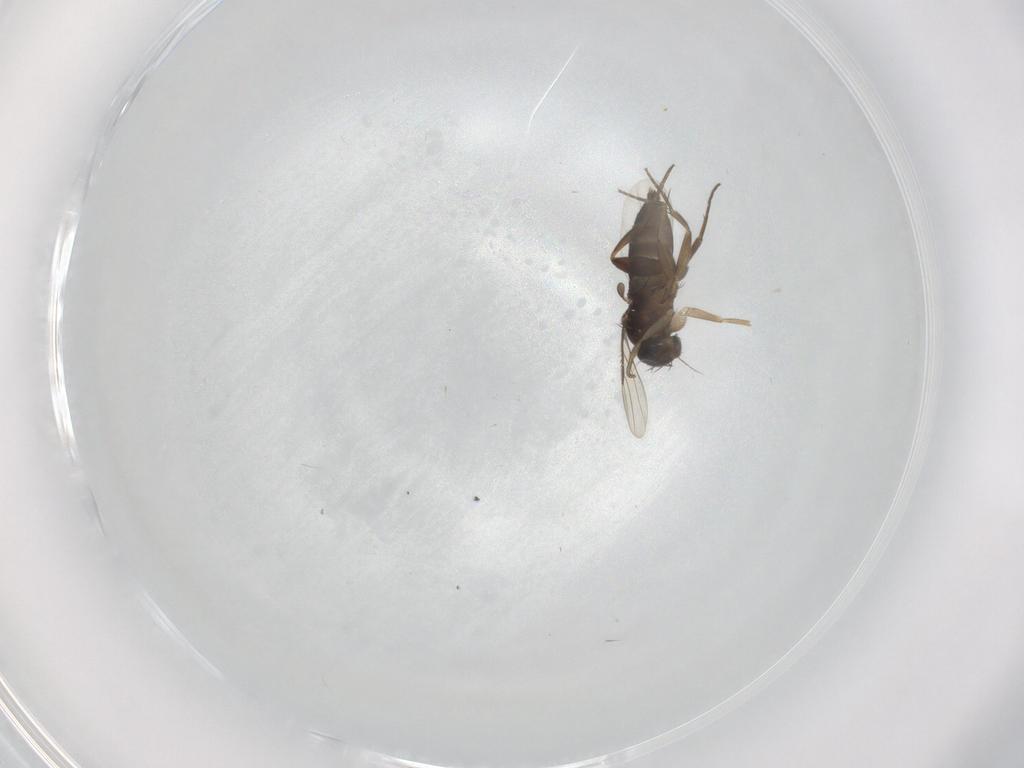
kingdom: Animalia
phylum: Arthropoda
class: Insecta
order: Diptera
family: Phoridae
